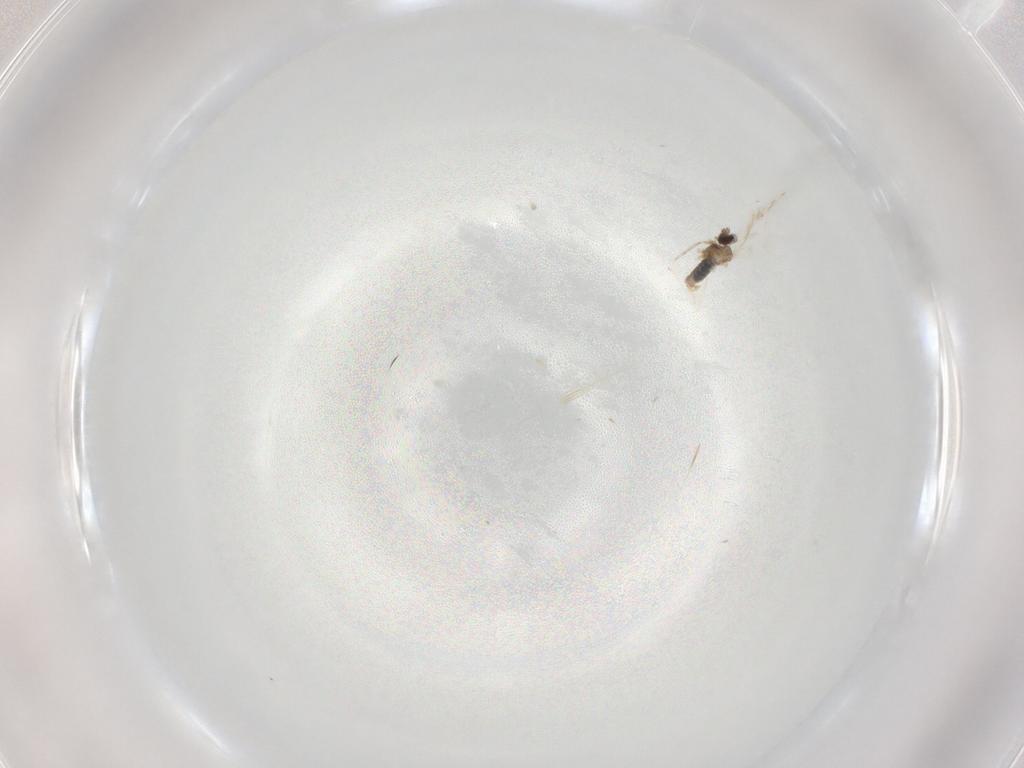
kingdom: Animalia
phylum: Arthropoda
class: Insecta
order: Diptera
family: Cecidomyiidae
